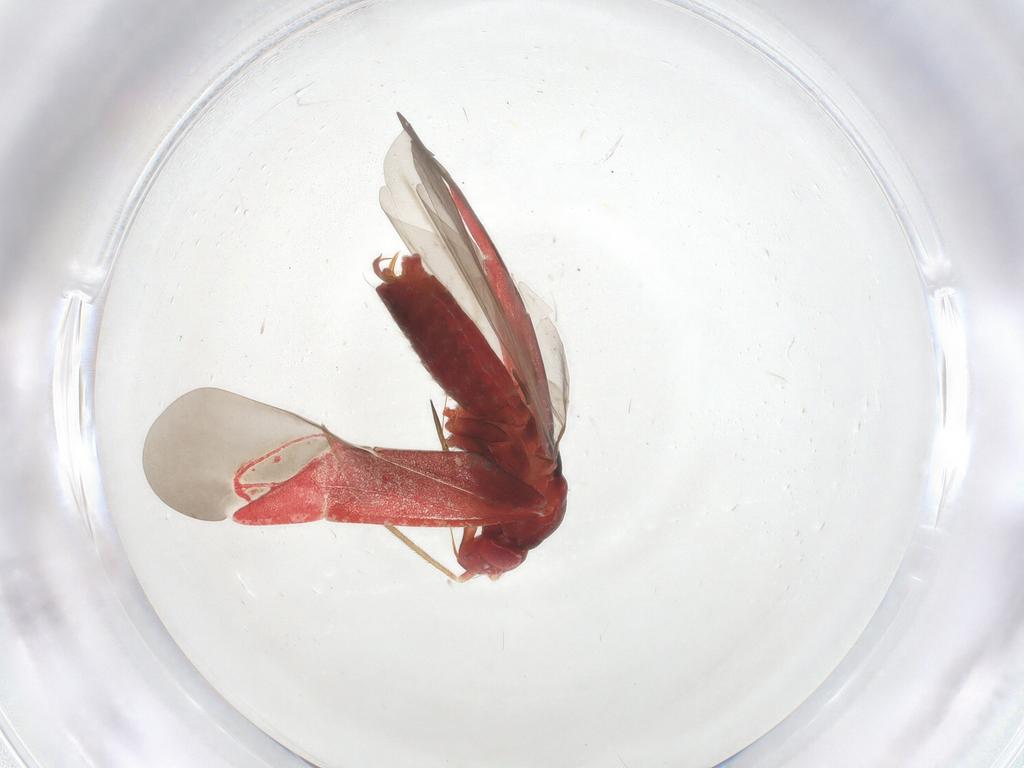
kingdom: Animalia
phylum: Arthropoda
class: Insecta
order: Hemiptera
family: Miridae
